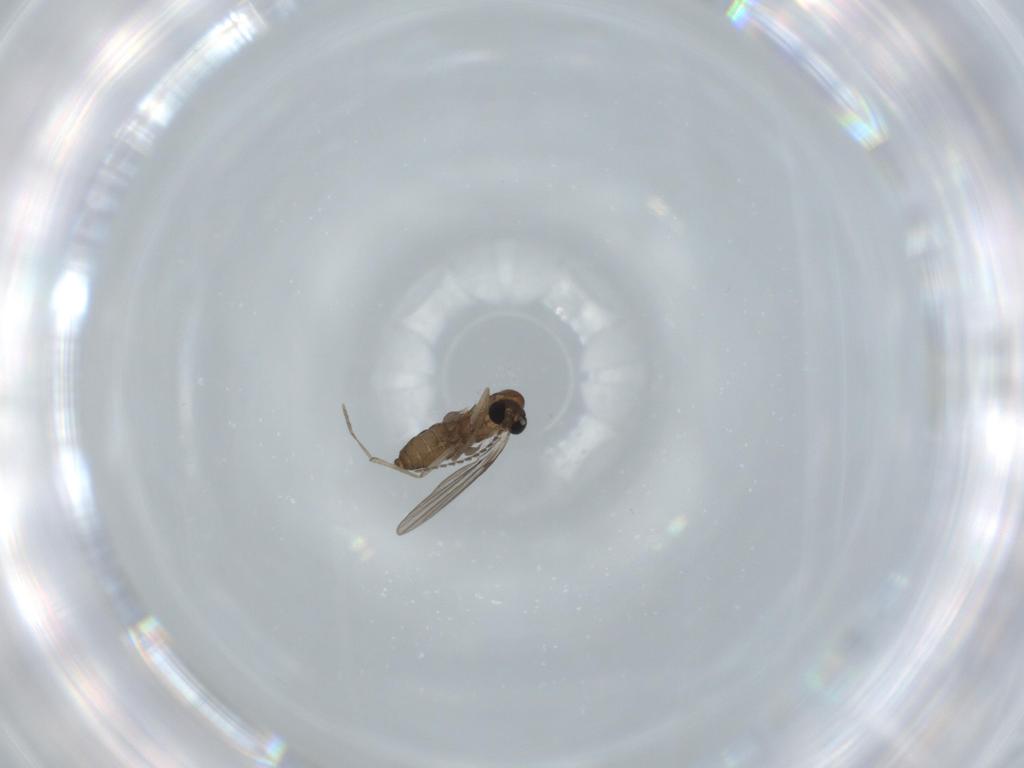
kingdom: Animalia
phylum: Arthropoda
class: Insecta
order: Diptera
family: Psychodidae
